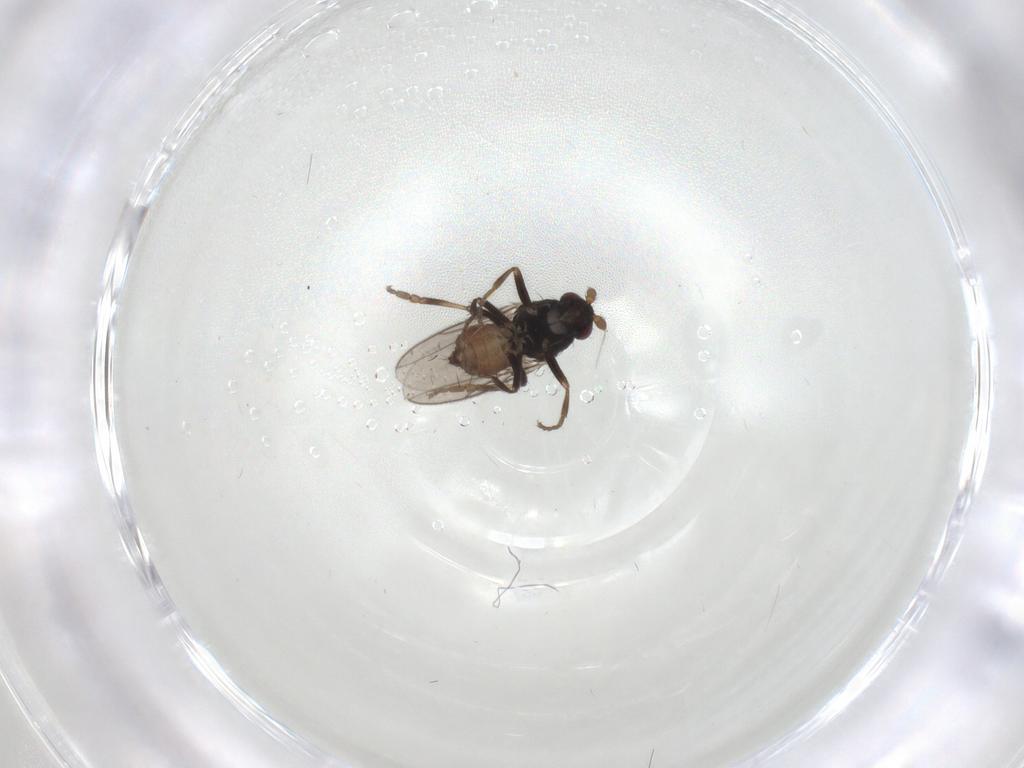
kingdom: Animalia
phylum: Arthropoda
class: Insecta
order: Diptera
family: Sphaeroceridae
